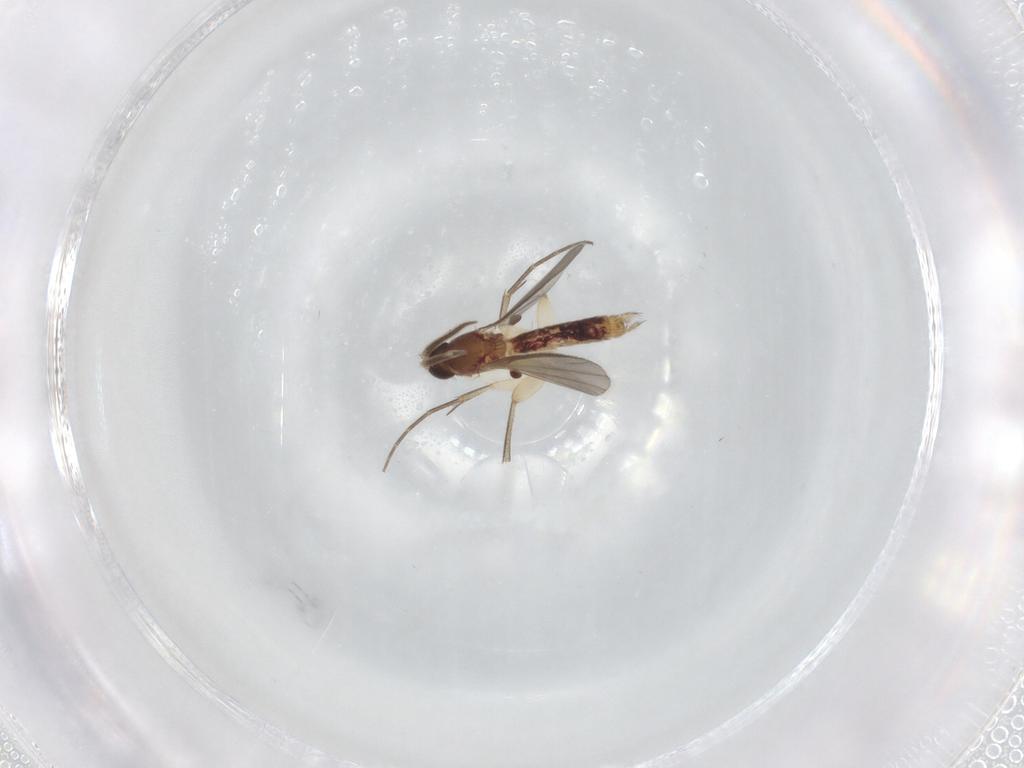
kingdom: Animalia
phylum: Arthropoda
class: Insecta
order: Diptera
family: Mycetophilidae
